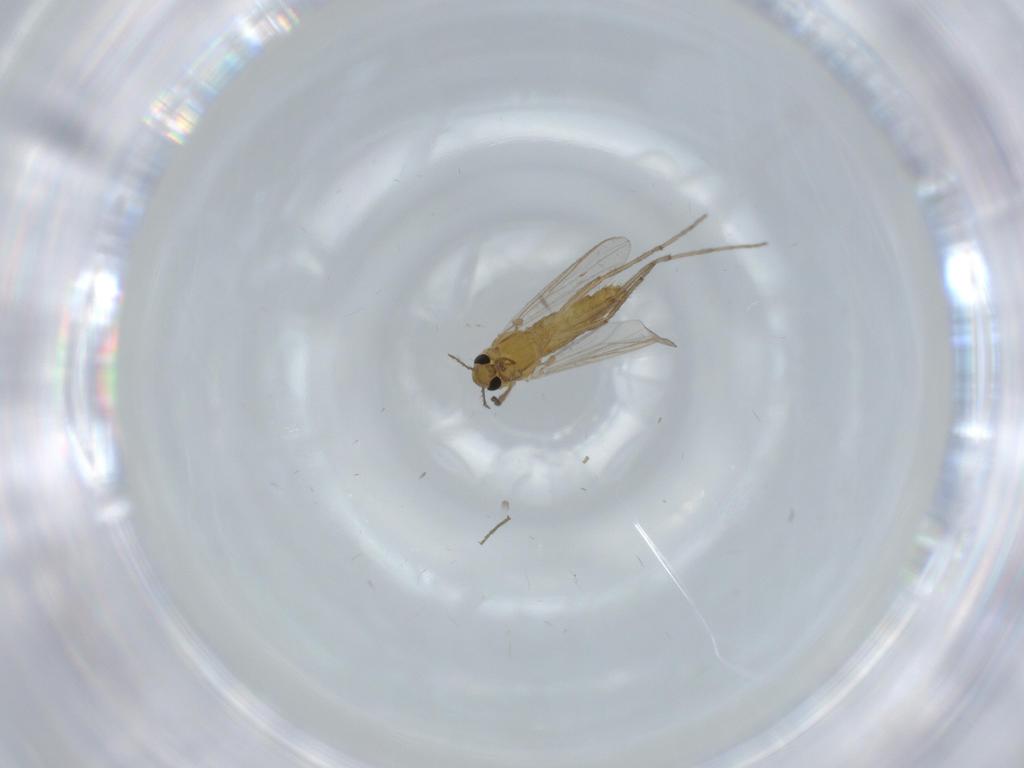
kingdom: Animalia
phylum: Arthropoda
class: Insecta
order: Diptera
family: Chironomidae
